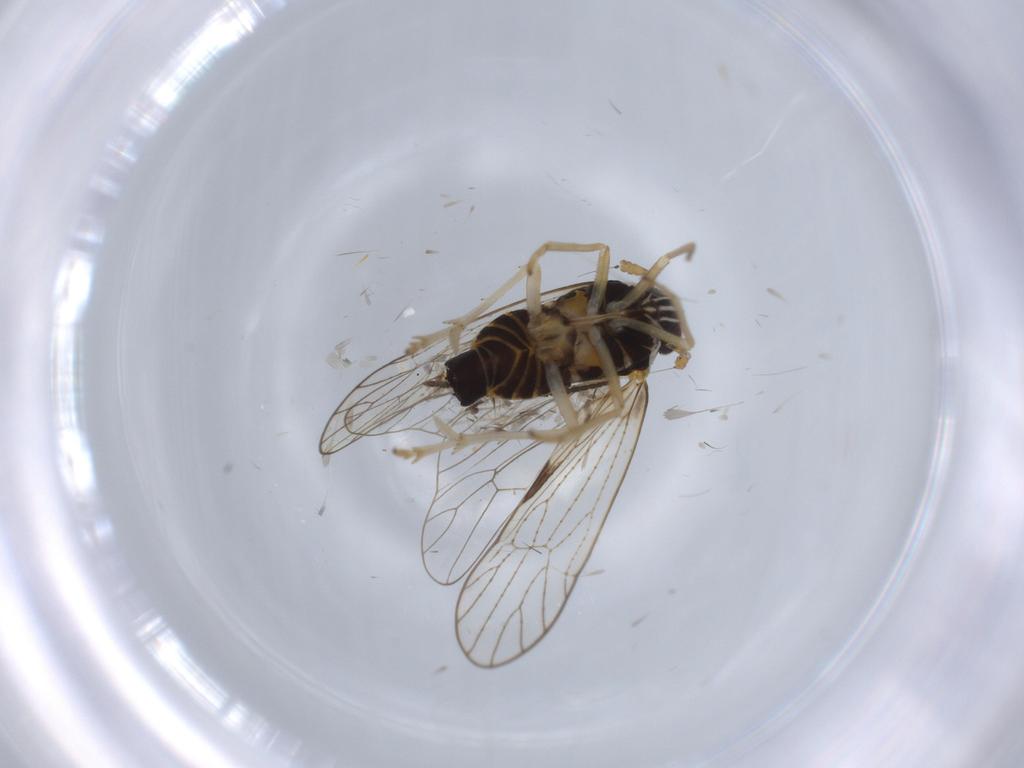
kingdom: Animalia
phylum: Arthropoda
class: Insecta
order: Hemiptera
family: Cicadellidae
